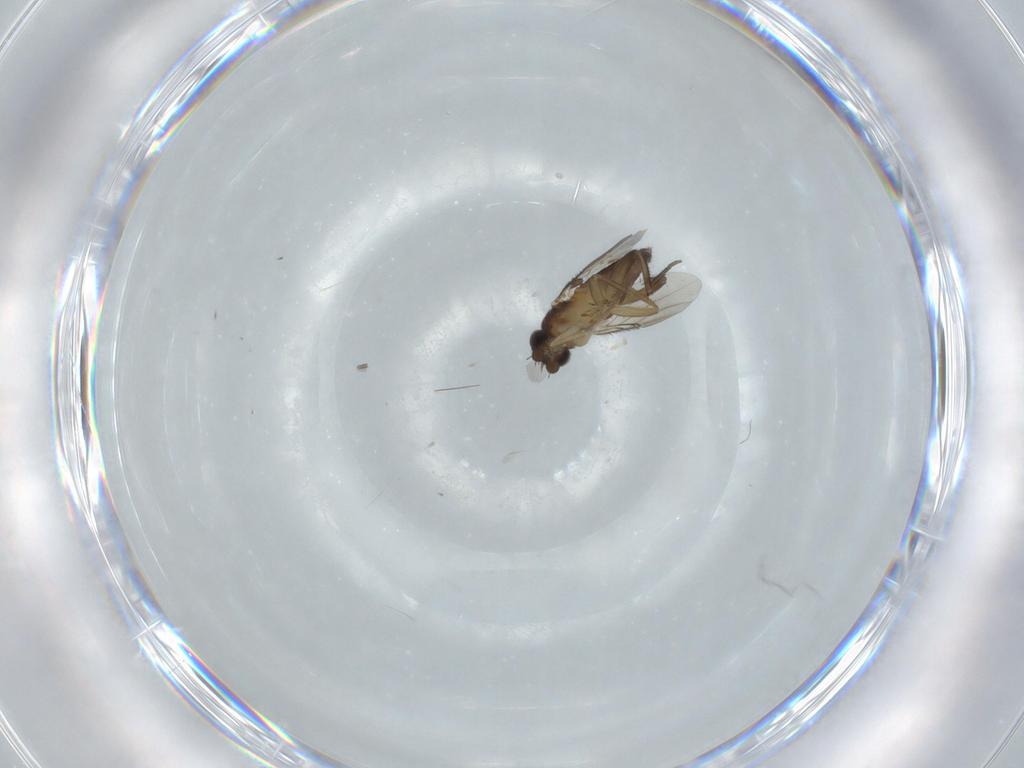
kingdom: Animalia
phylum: Arthropoda
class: Insecta
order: Diptera
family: Phoridae
